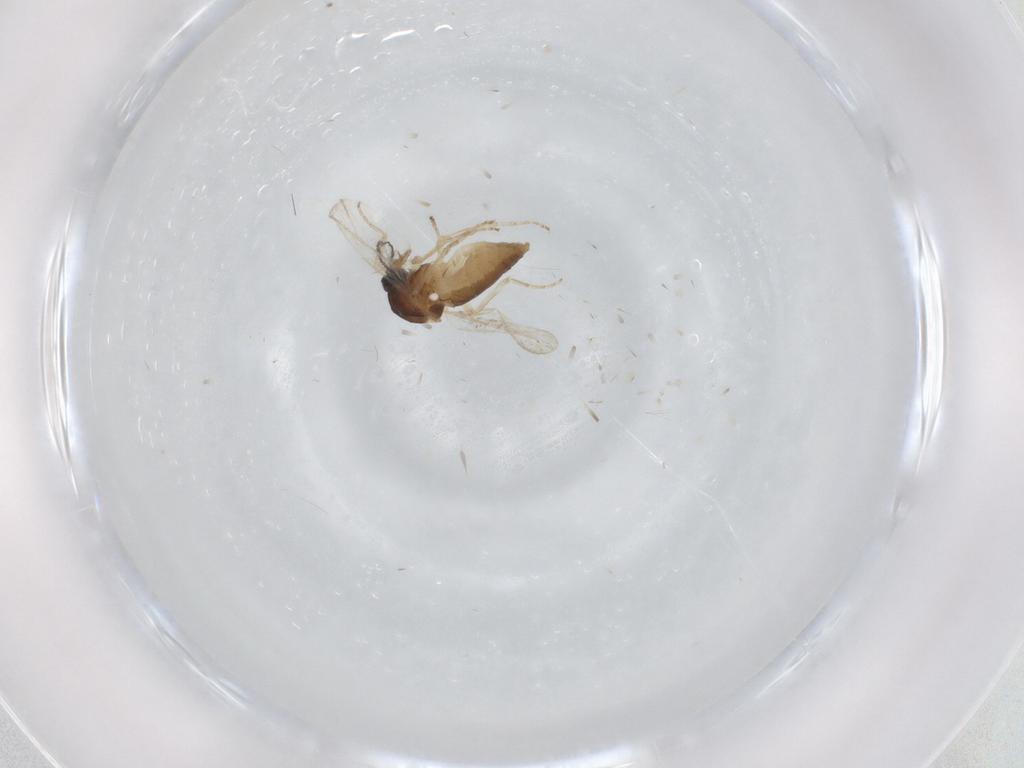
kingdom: Animalia
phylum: Arthropoda
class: Insecta
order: Diptera
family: Ceratopogonidae
